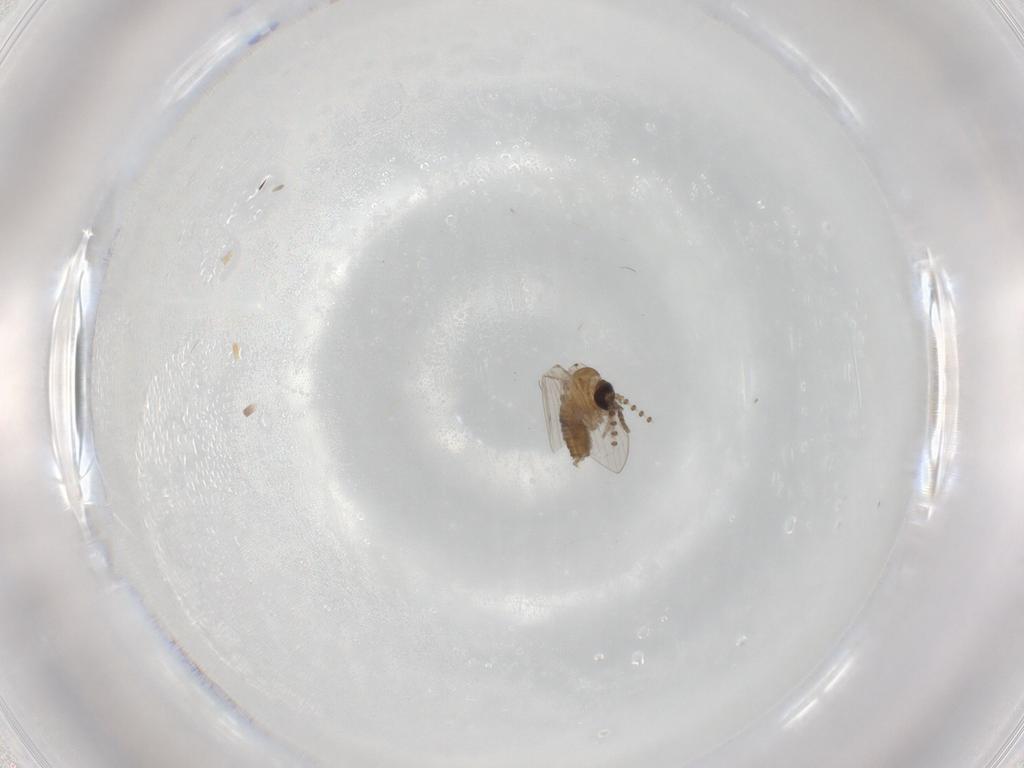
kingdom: Animalia
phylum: Arthropoda
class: Insecta
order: Diptera
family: Psychodidae
